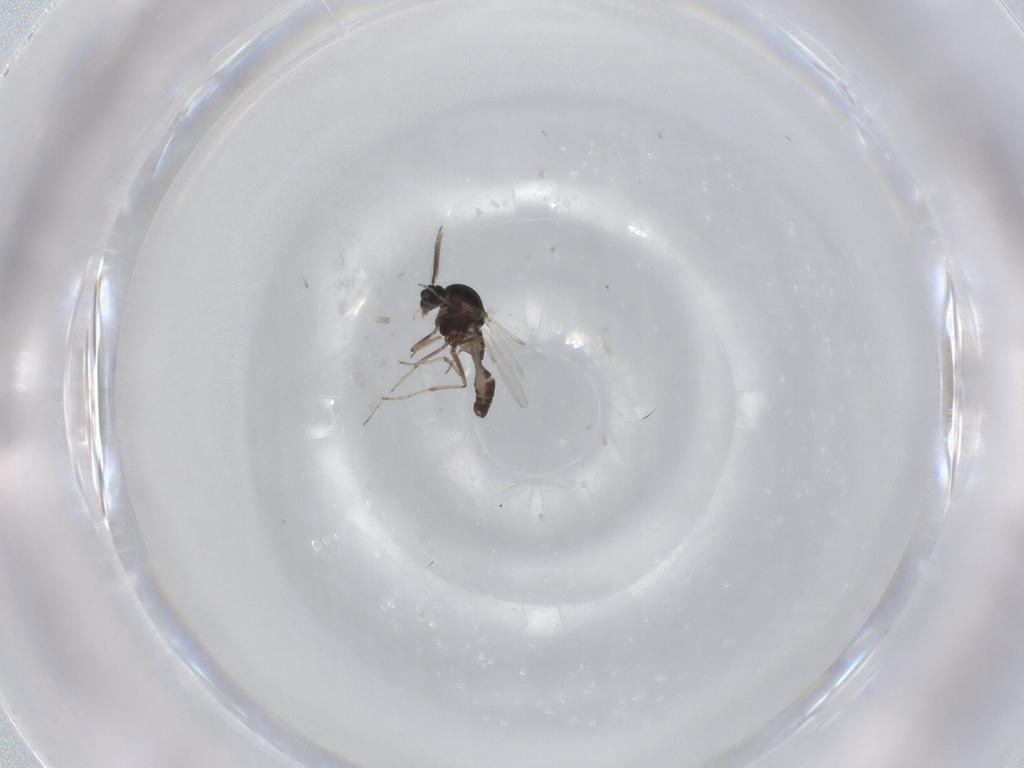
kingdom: Animalia
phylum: Arthropoda
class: Insecta
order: Diptera
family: Ceratopogonidae
